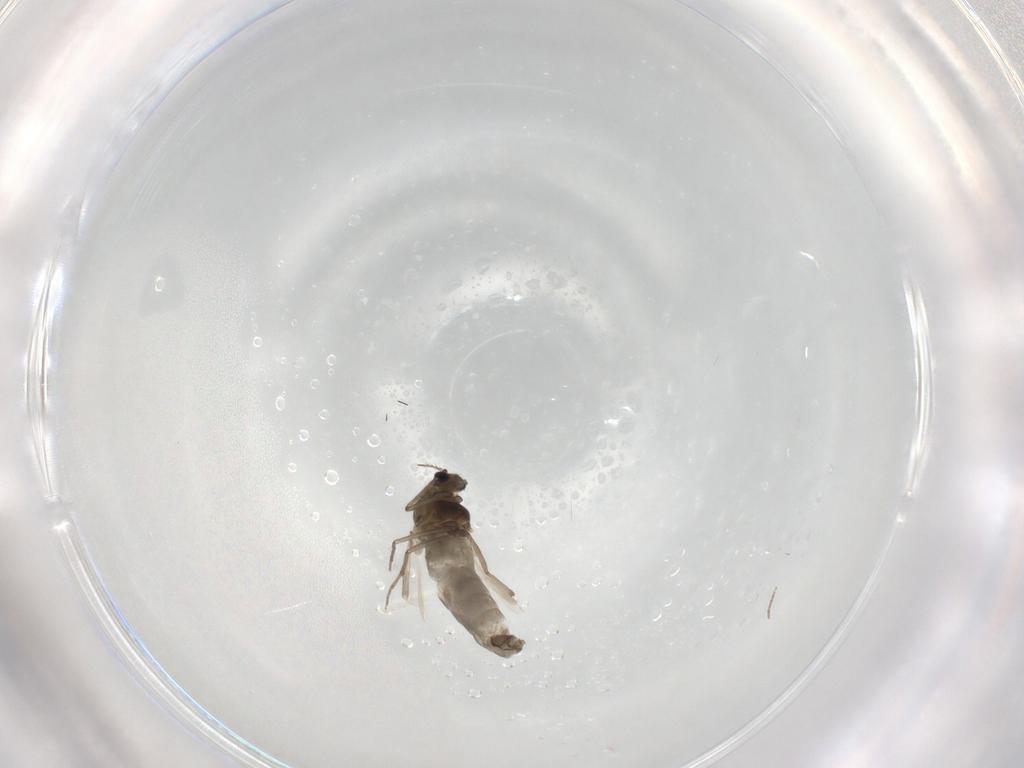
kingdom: Animalia
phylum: Arthropoda
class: Insecta
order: Diptera
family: Chironomidae
